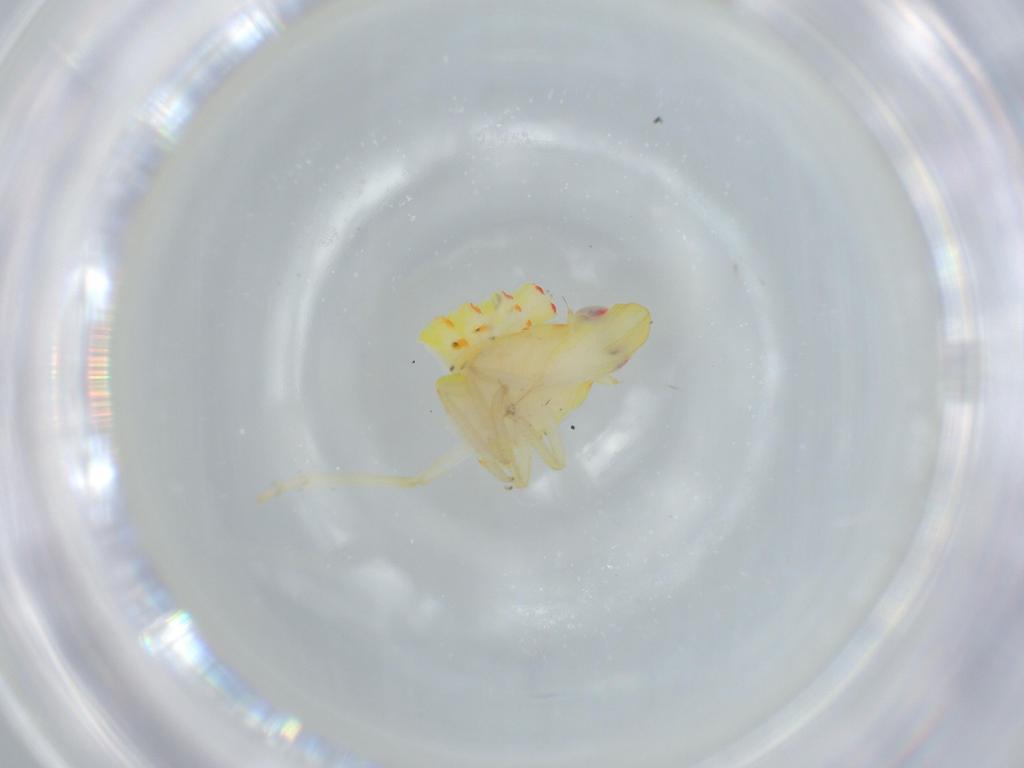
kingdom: Animalia
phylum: Arthropoda
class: Insecta
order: Hemiptera
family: Tropiduchidae
